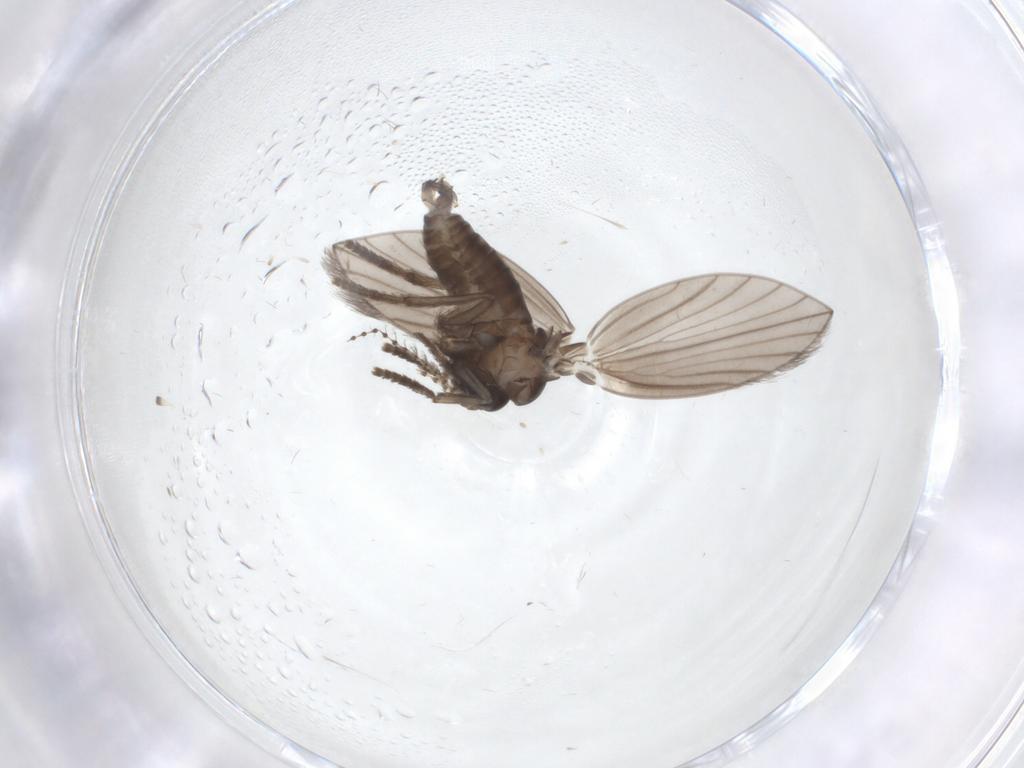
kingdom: Animalia
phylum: Arthropoda
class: Insecta
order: Diptera
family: Psychodidae
